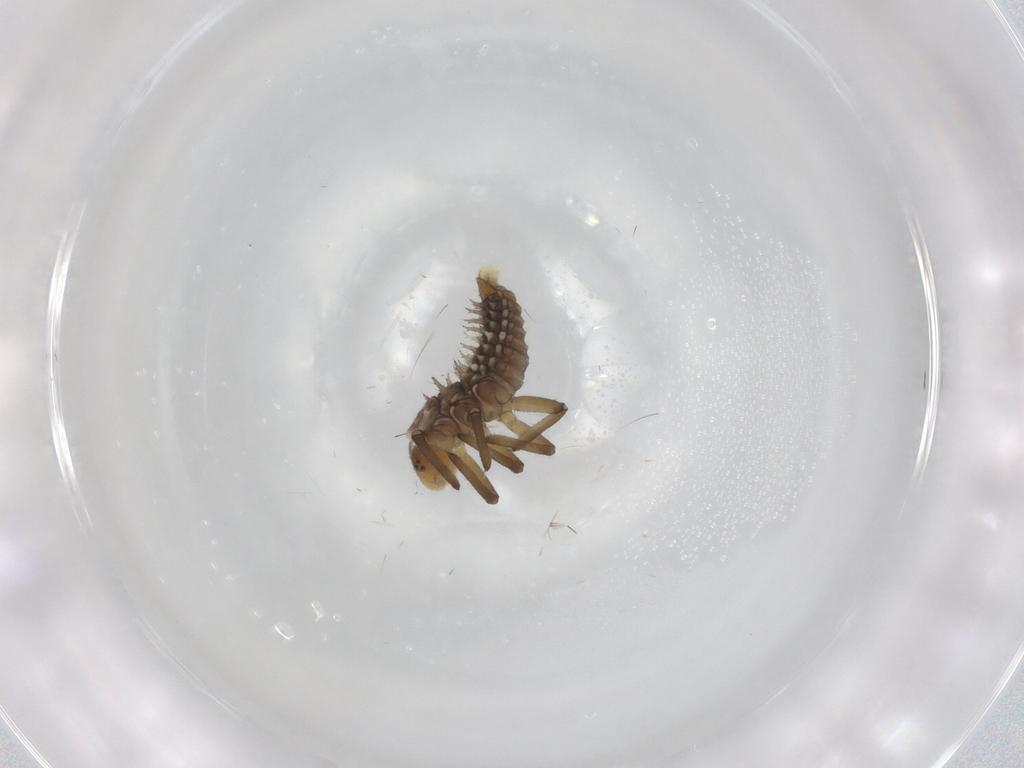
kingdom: Animalia
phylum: Arthropoda
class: Insecta
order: Coleoptera
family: Coccinellidae
